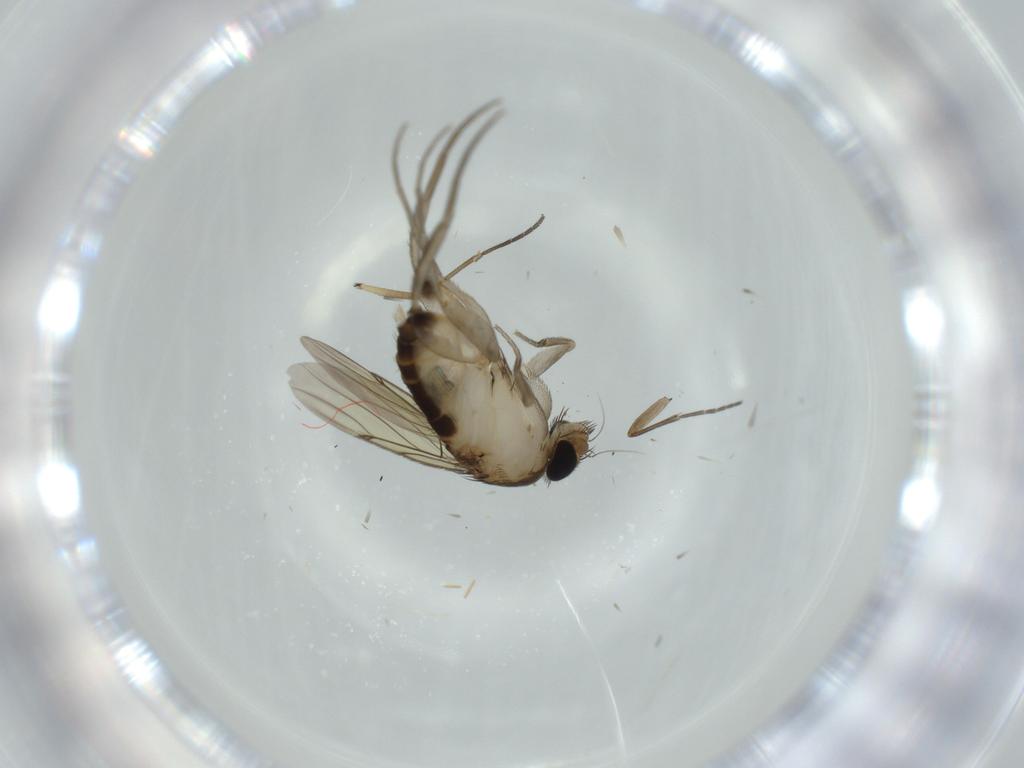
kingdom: Animalia
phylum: Arthropoda
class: Insecta
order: Diptera
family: Phoridae
